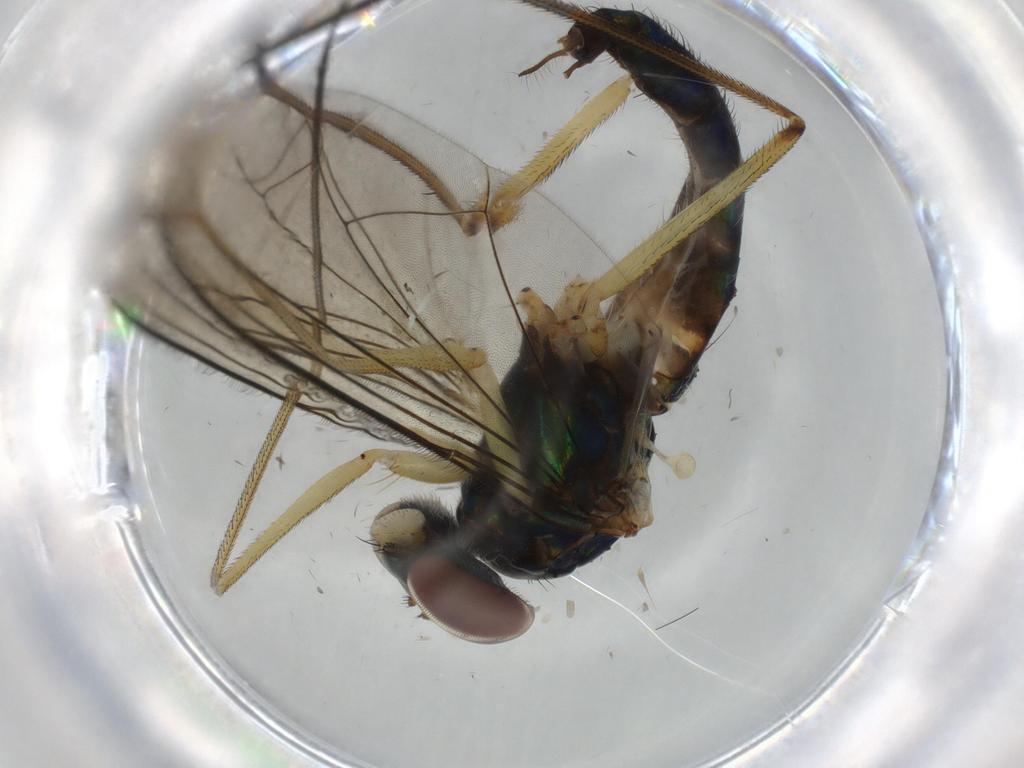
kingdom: Animalia
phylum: Arthropoda
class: Insecta
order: Diptera
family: Dolichopodidae
